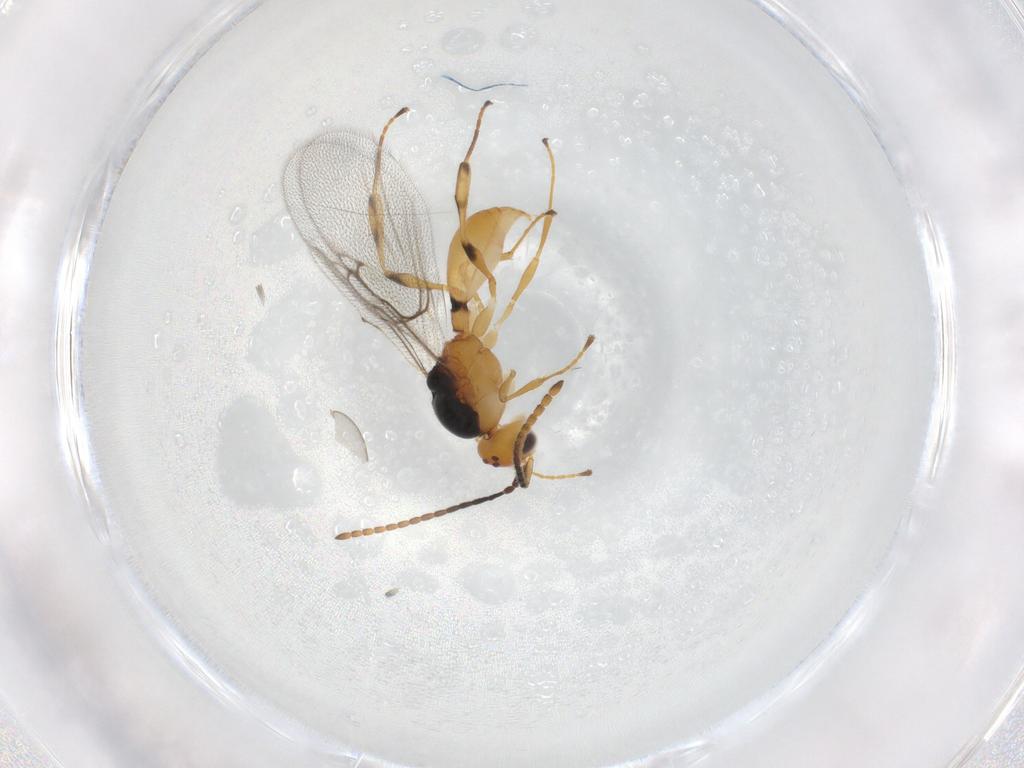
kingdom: Animalia
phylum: Arthropoda
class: Insecta
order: Hymenoptera
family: Diapriidae
